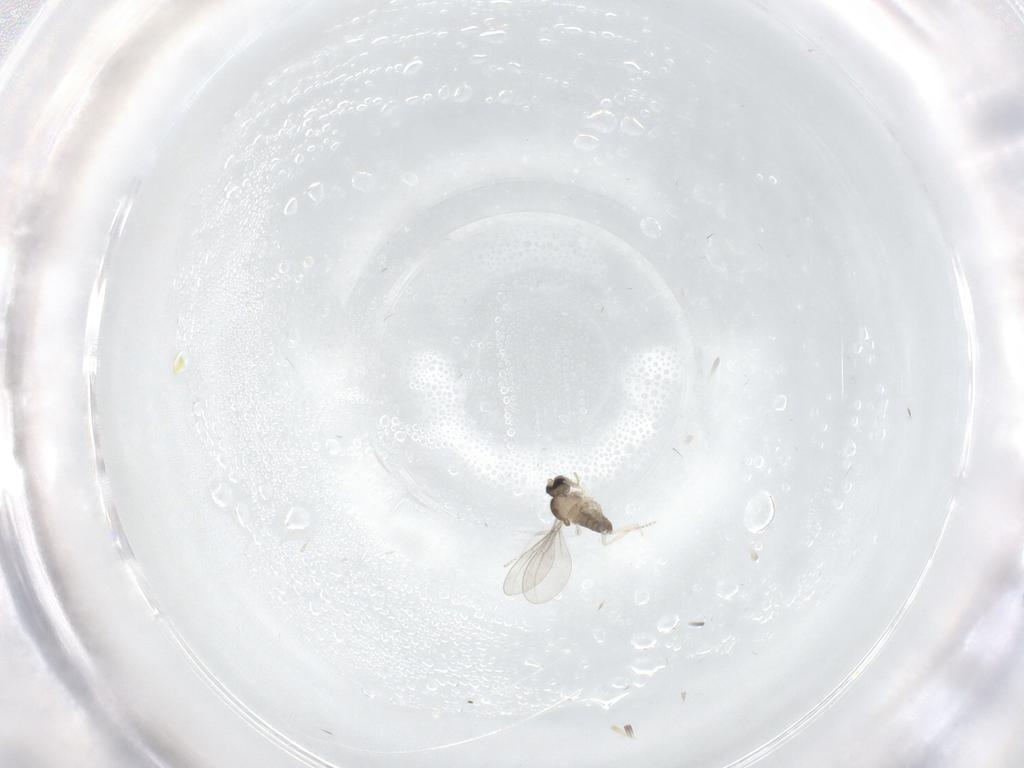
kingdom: Animalia
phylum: Arthropoda
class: Insecta
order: Diptera
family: Cecidomyiidae
